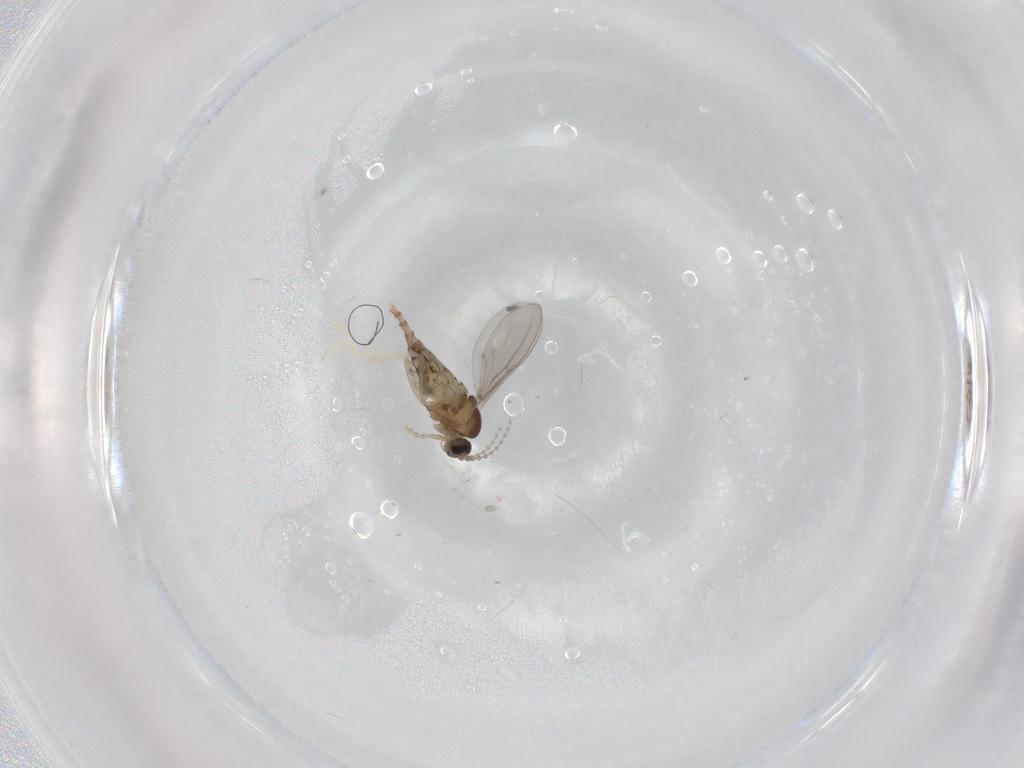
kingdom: Animalia
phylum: Arthropoda
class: Insecta
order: Diptera
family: Cecidomyiidae
